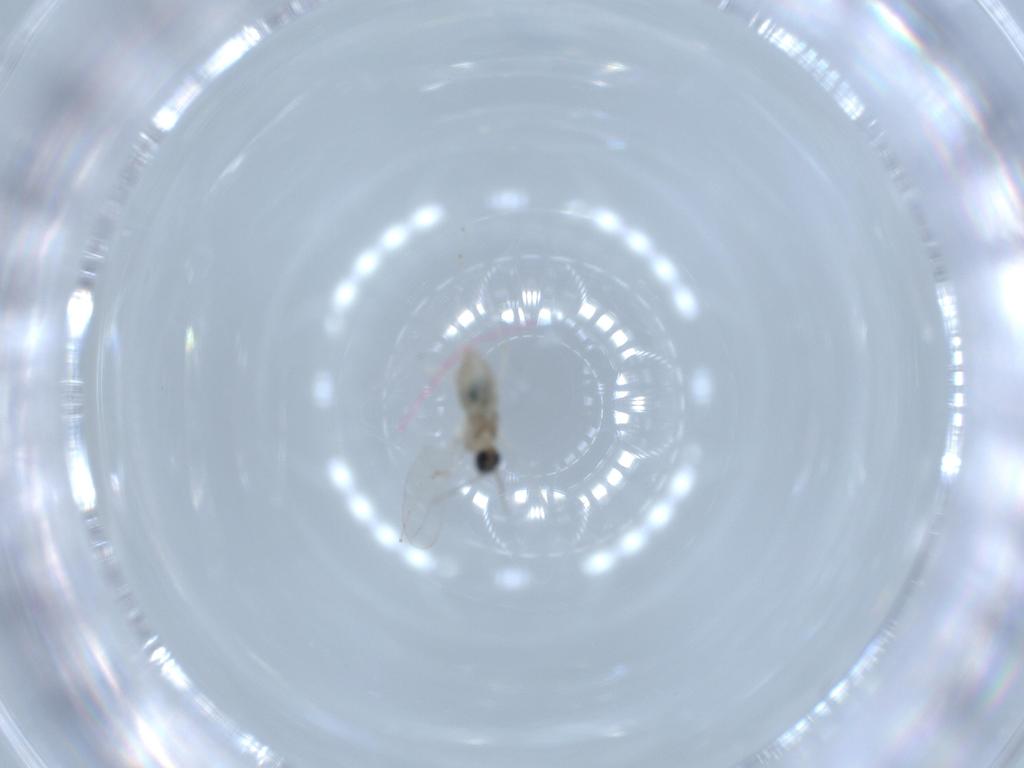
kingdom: Animalia
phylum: Arthropoda
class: Insecta
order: Diptera
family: Cecidomyiidae
